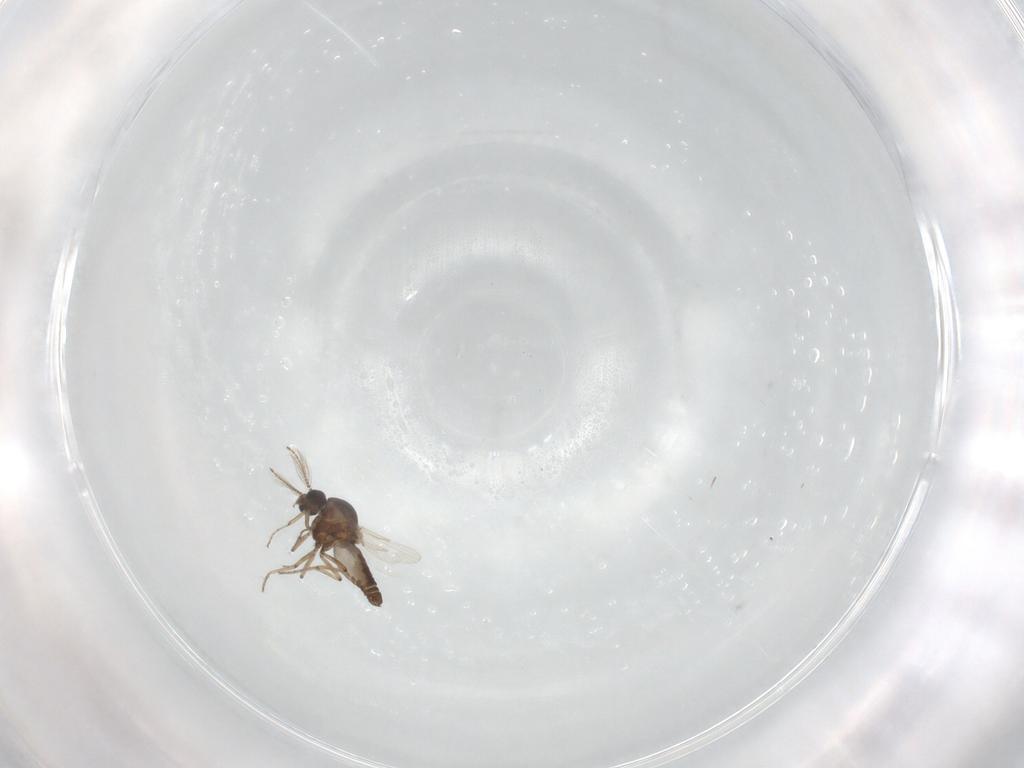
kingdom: Animalia
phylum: Arthropoda
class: Insecta
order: Diptera
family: Ceratopogonidae
